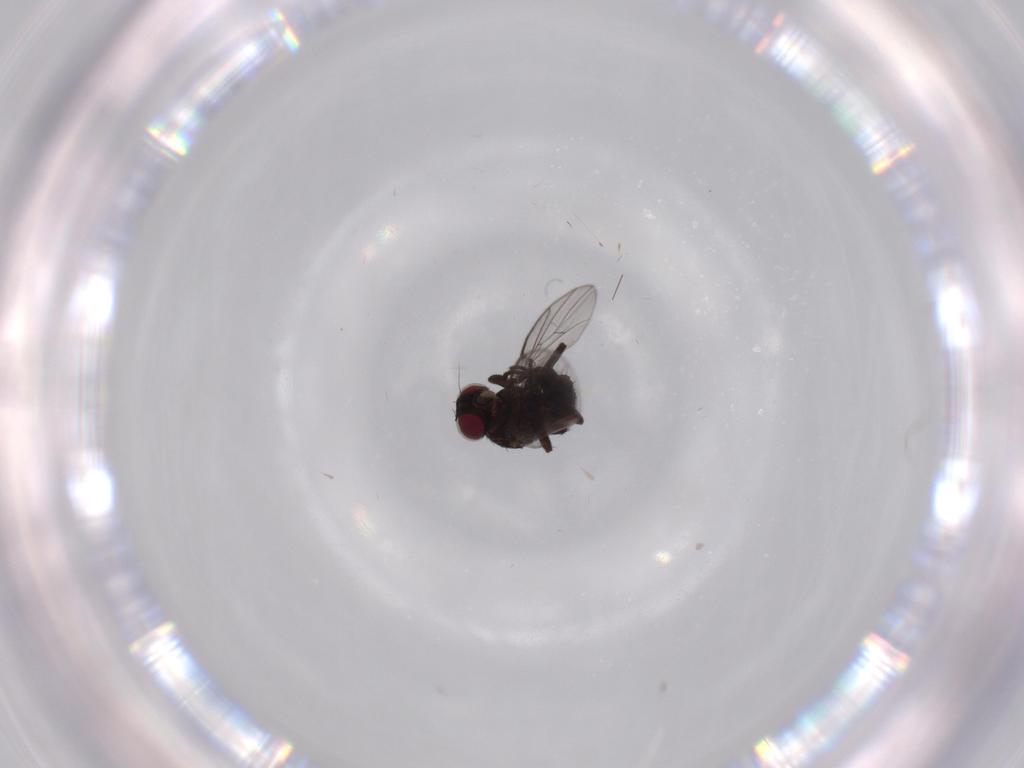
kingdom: Animalia
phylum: Arthropoda
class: Insecta
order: Diptera
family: Agromyzidae
